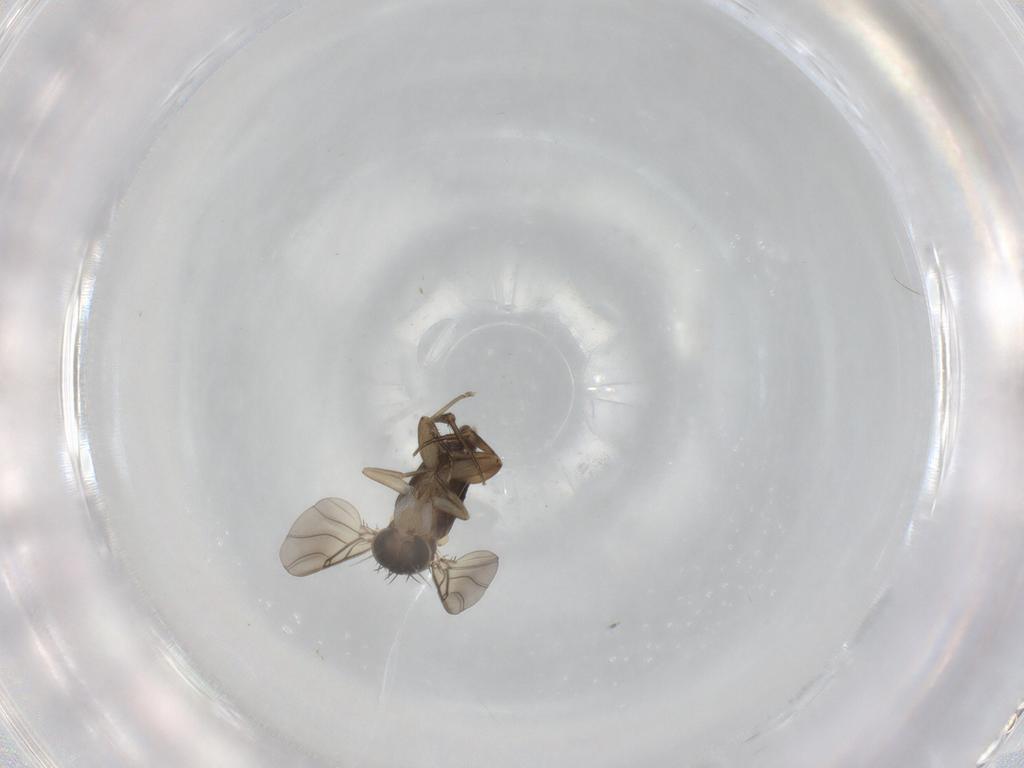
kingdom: Animalia
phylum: Arthropoda
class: Insecta
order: Diptera
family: Phoridae
